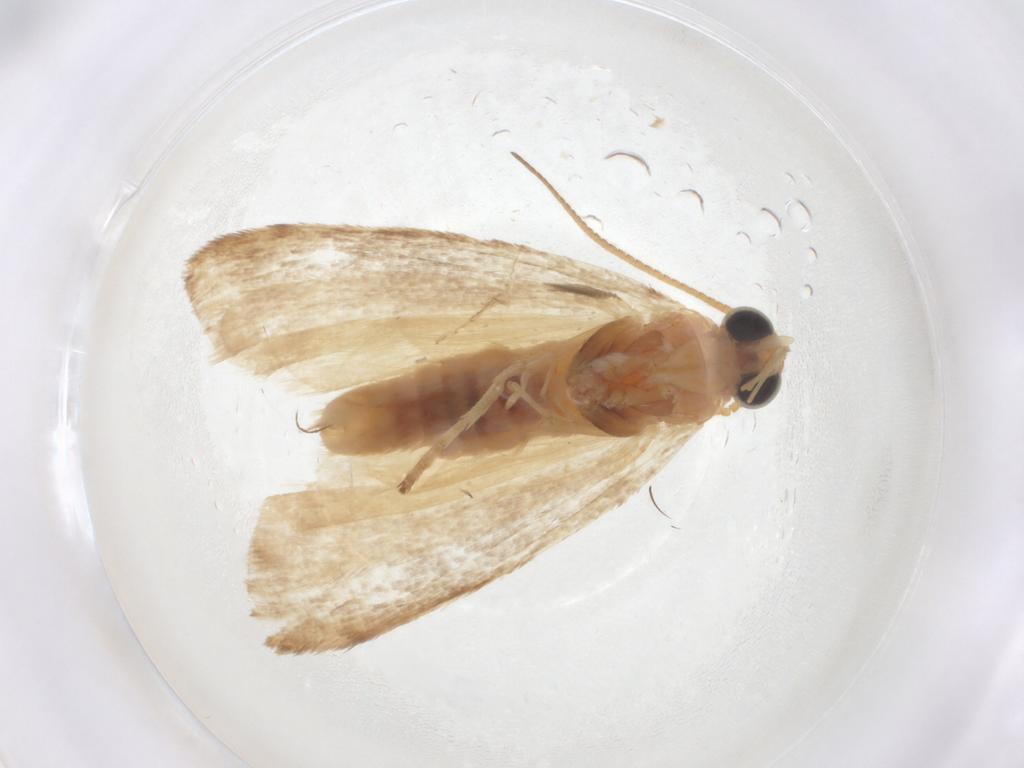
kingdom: Animalia
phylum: Arthropoda
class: Insecta
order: Lepidoptera
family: Pyralidae
